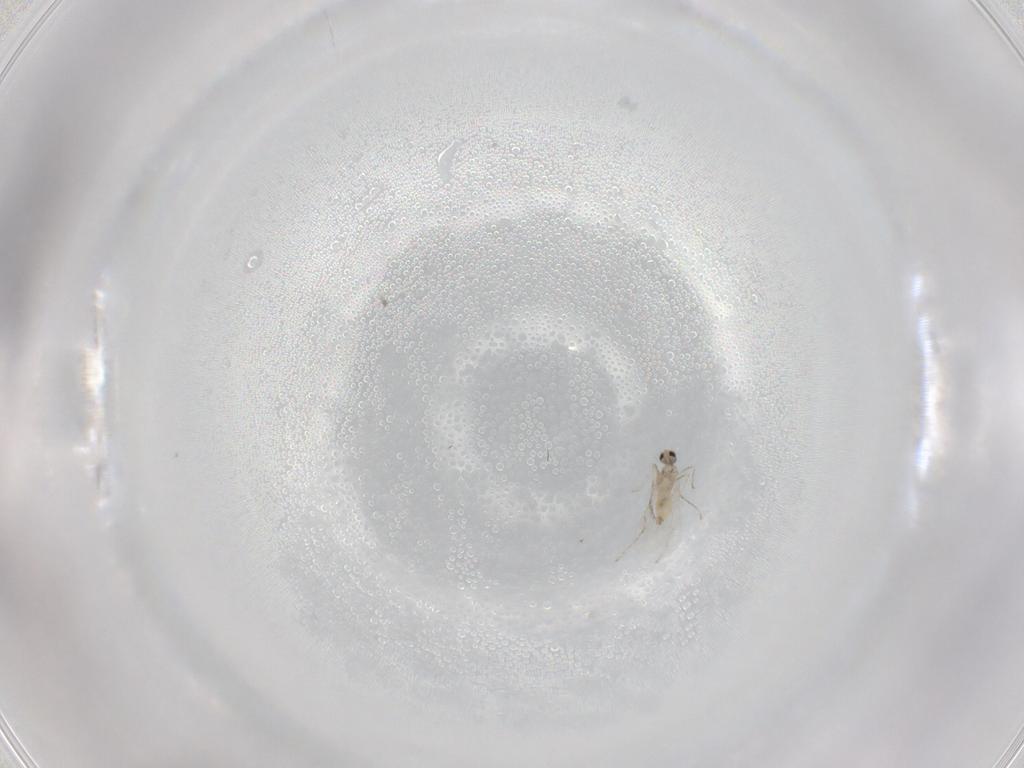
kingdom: Animalia
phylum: Arthropoda
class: Insecta
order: Diptera
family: Cecidomyiidae
